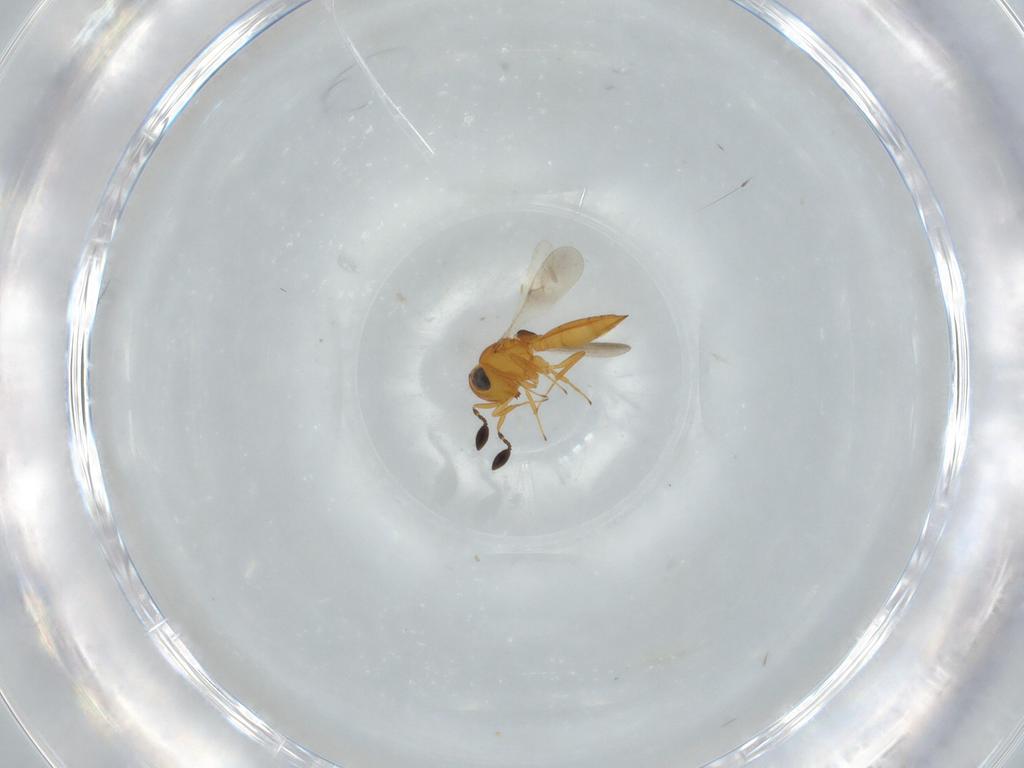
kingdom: Animalia
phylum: Arthropoda
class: Insecta
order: Hymenoptera
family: Scelionidae
